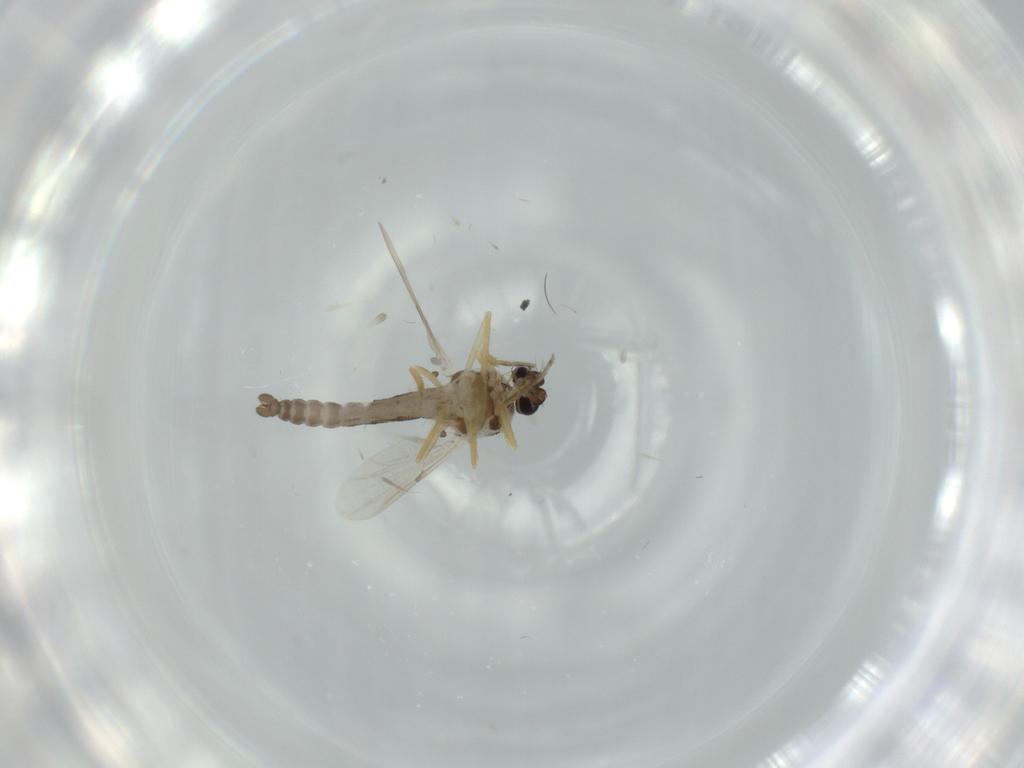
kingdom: Animalia
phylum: Arthropoda
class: Insecta
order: Diptera
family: Ceratopogonidae
